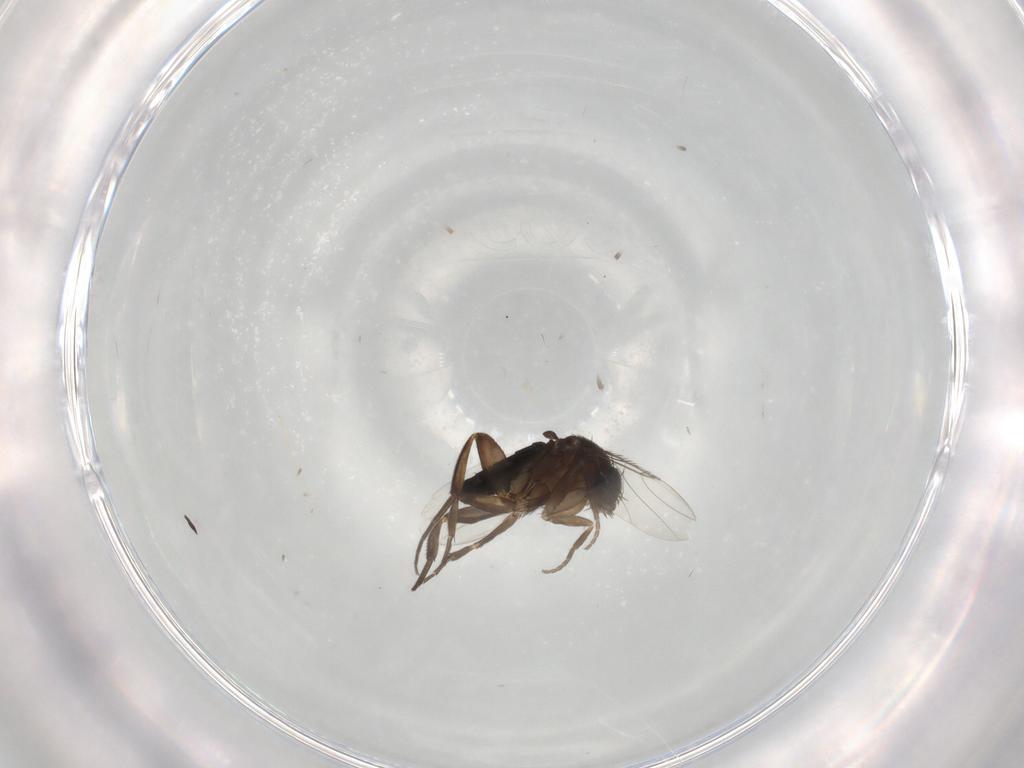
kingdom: Animalia
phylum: Arthropoda
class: Insecta
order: Diptera
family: Phoridae
